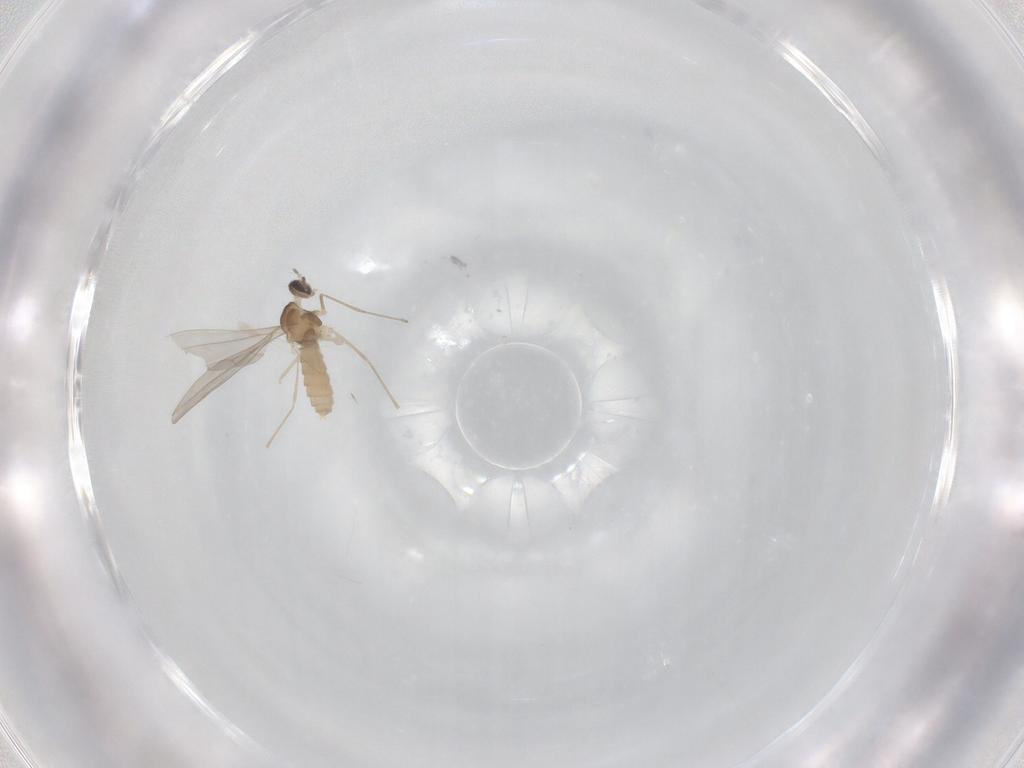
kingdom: Animalia
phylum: Arthropoda
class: Insecta
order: Diptera
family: Cecidomyiidae
